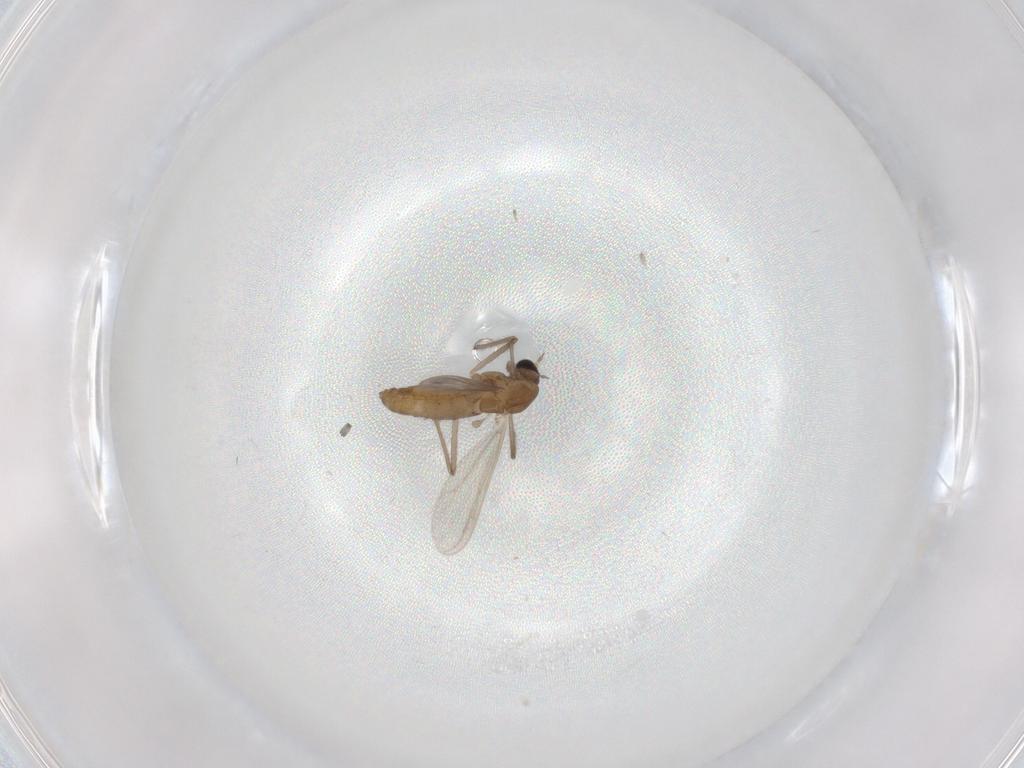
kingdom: Animalia
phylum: Arthropoda
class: Insecta
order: Diptera
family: Chironomidae
